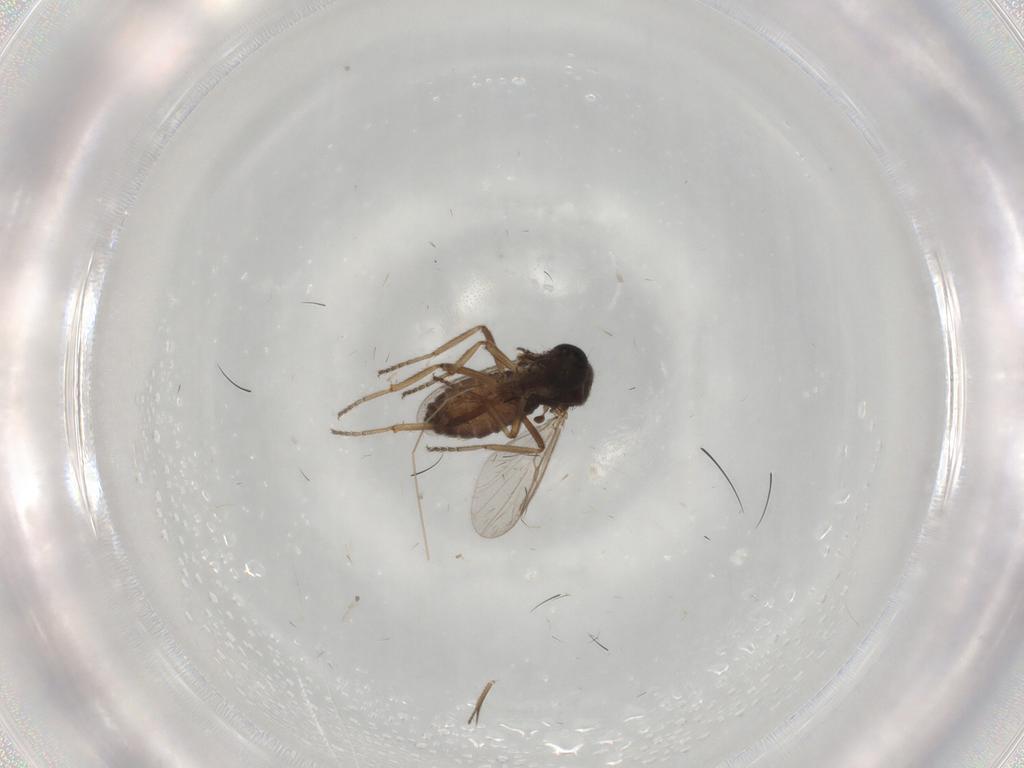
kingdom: Animalia
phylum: Arthropoda
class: Insecta
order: Diptera
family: Ceratopogonidae
